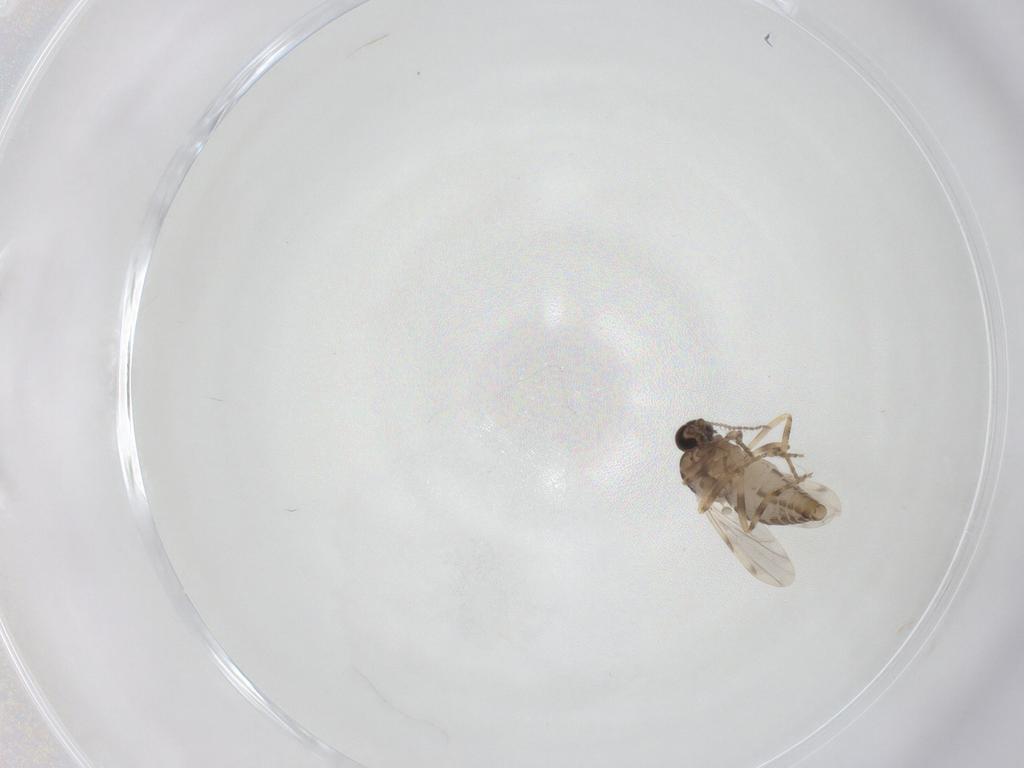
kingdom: Animalia
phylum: Arthropoda
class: Insecta
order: Diptera
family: Ceratopogonidae
